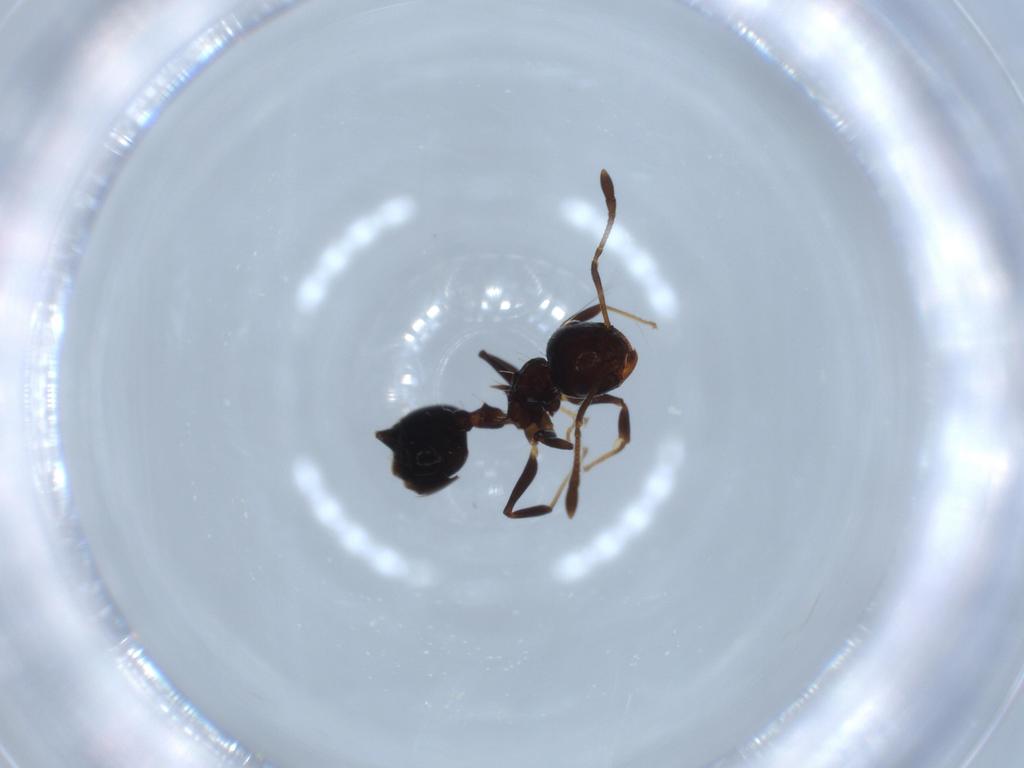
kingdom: Animalia
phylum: Arthropoda
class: Insecta
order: Hymenoptera
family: Formicidae
